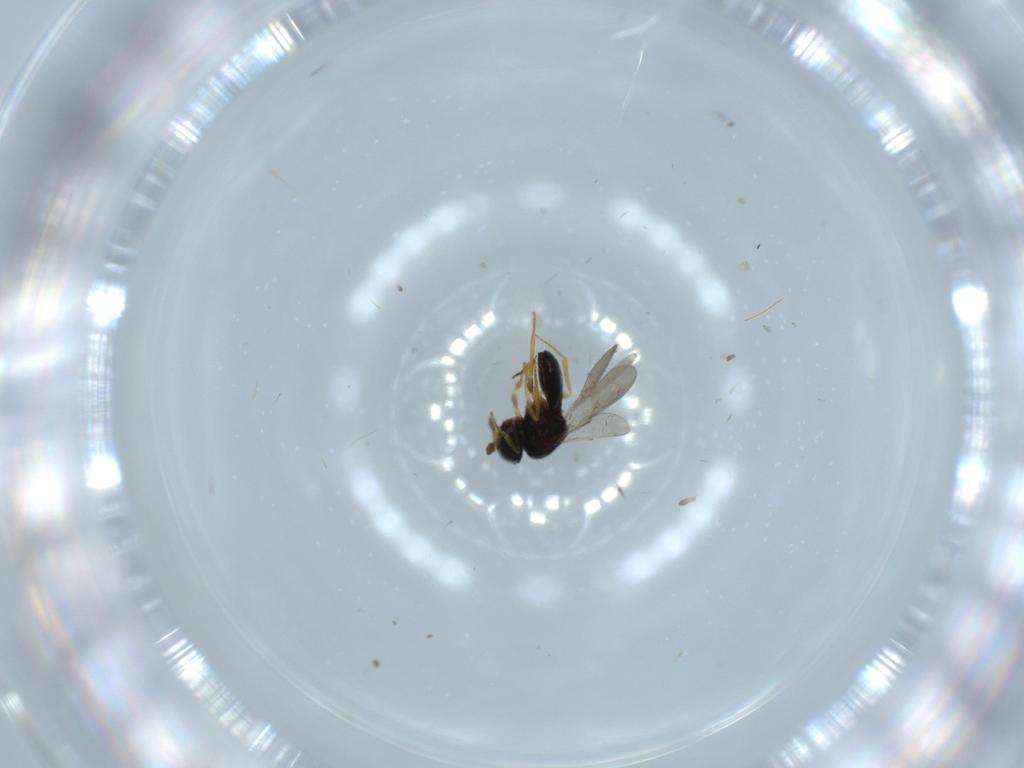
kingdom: Animalia
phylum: Arthropoda
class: Insecta
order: Hymenoptera
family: Scelionidae
